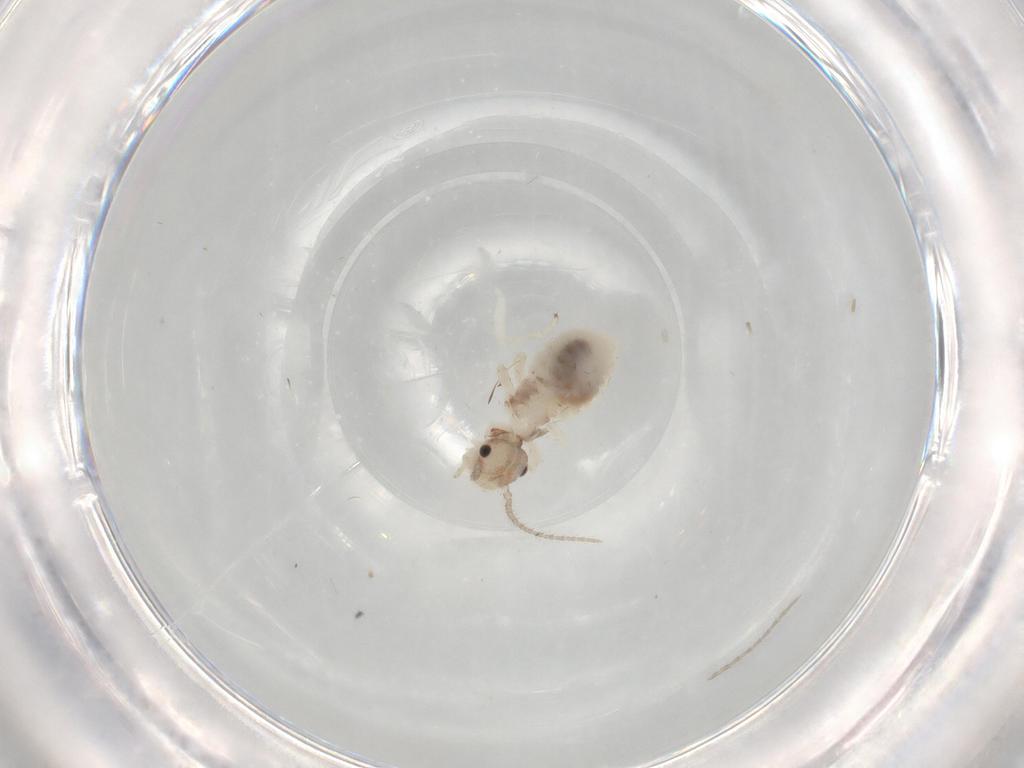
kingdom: Animalia
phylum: Arthropoda
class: Insecta
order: Psocodea
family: Amphipsocidae
